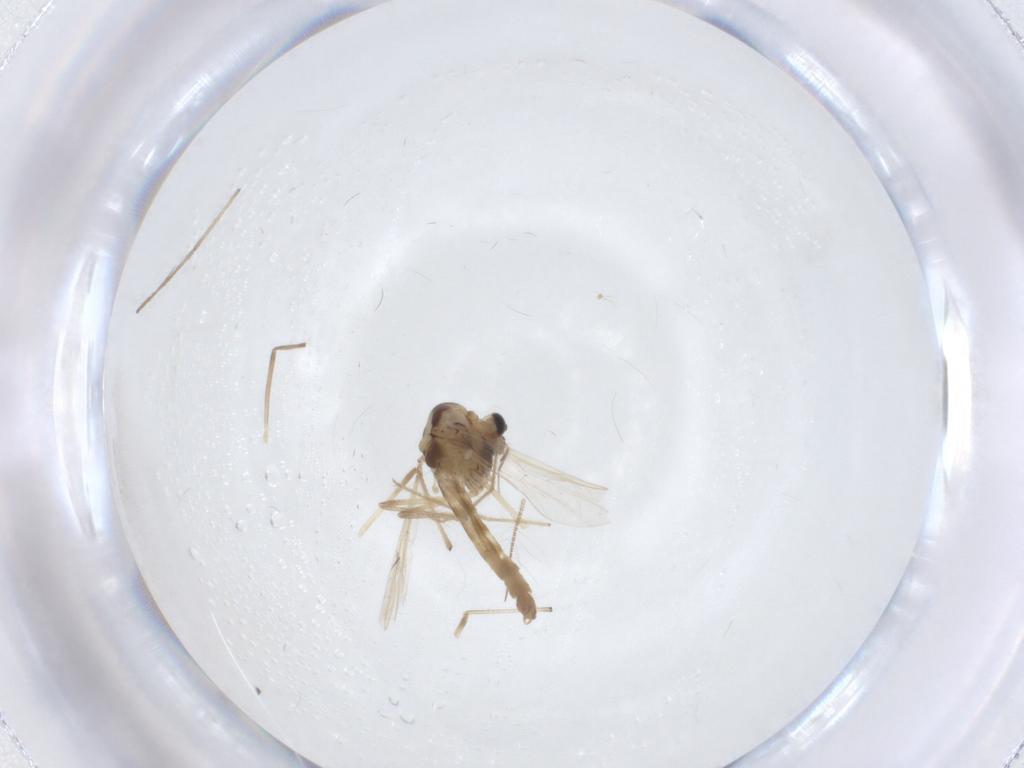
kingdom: Animalia
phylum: Arthropoda
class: Insecta
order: Diptera
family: Chironomidae
